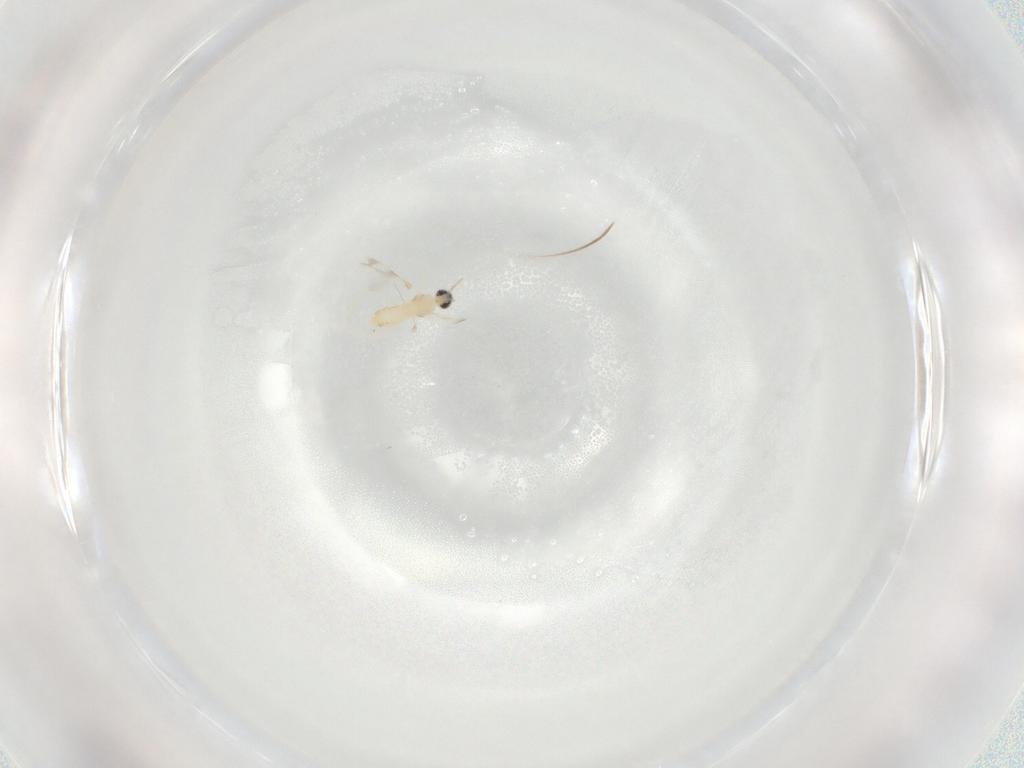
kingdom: Animalia
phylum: Arthropoda
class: Insecta
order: Diptera
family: Cecidomyiidae
